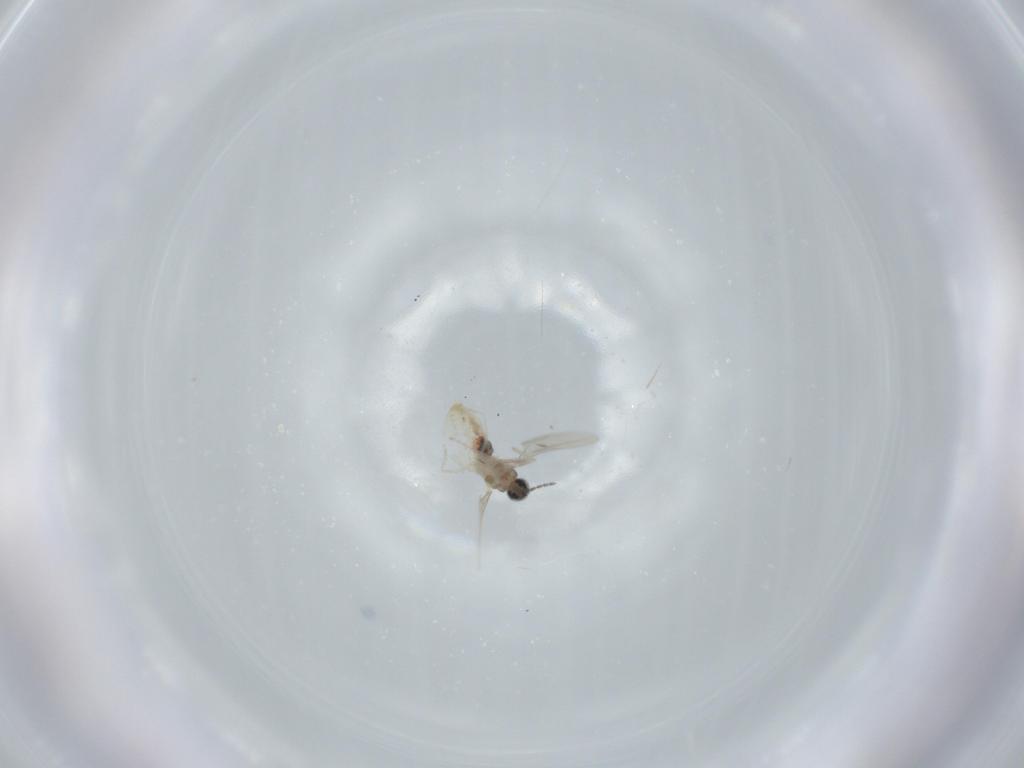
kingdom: Animalia
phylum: Arthropoda
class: Insecta
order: Diptera
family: Cecidomyiidae
